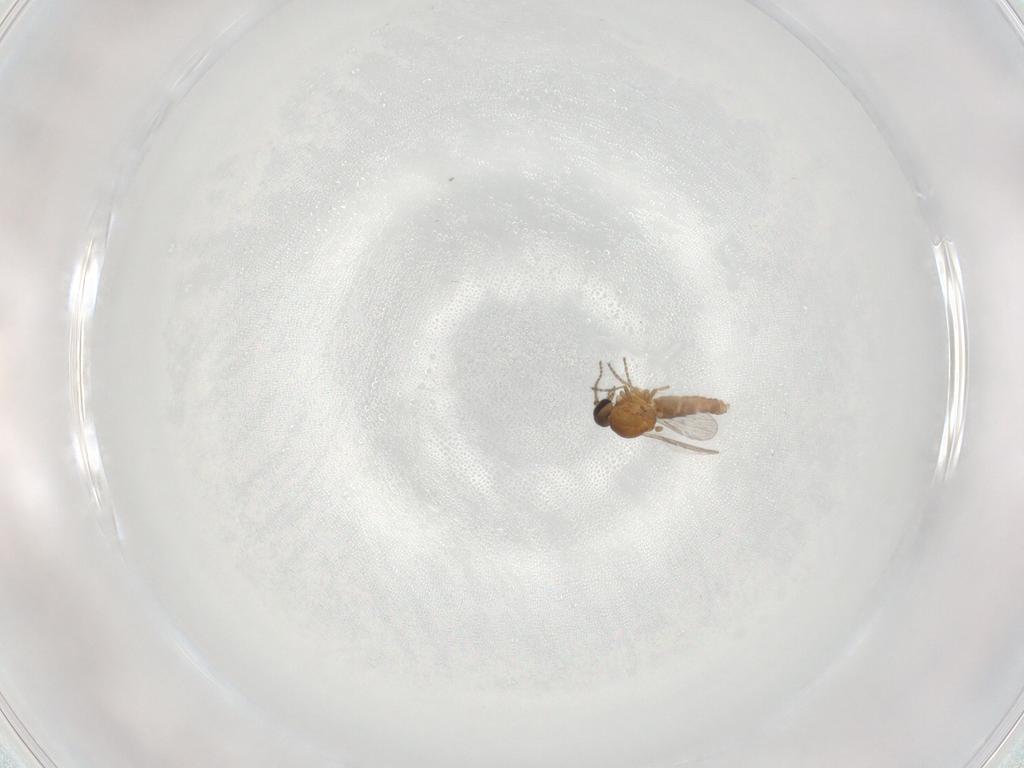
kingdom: Animalia
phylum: Arthropoda
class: Insecta
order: Diptera
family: Ceratopogonidae
